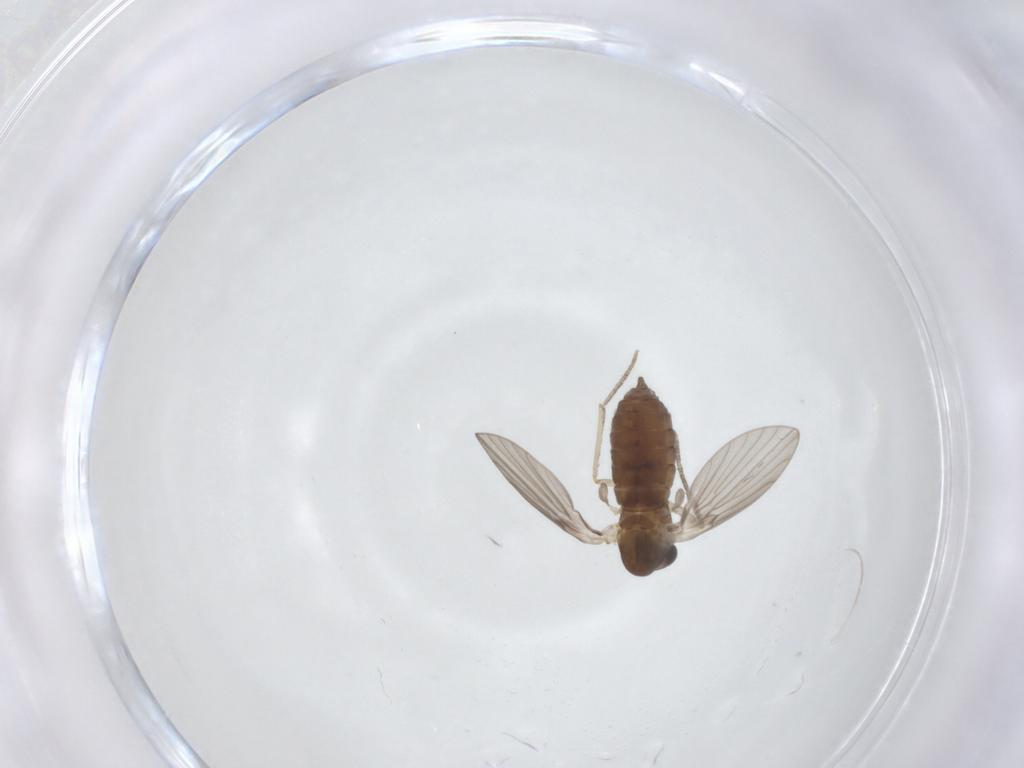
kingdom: Animalia
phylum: Arthropoda
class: Insecta
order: Diptera
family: Psychodidae
